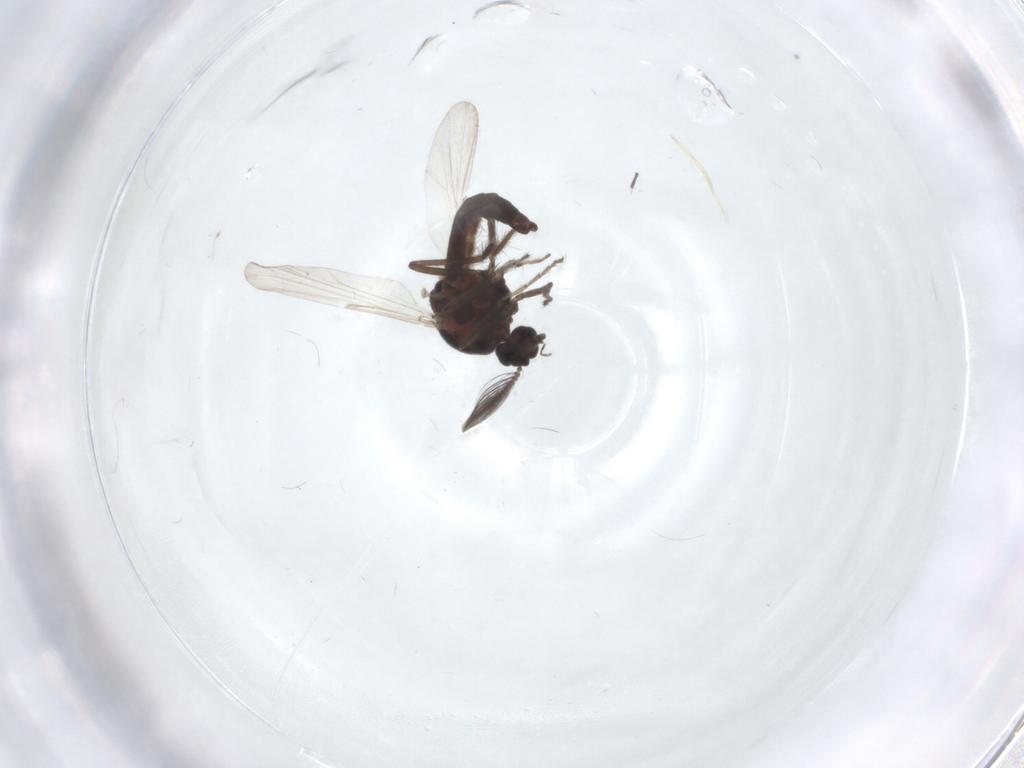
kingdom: Animalia
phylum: Arthropoda
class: Insecta
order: Diptera
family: Ceratopogonidae
